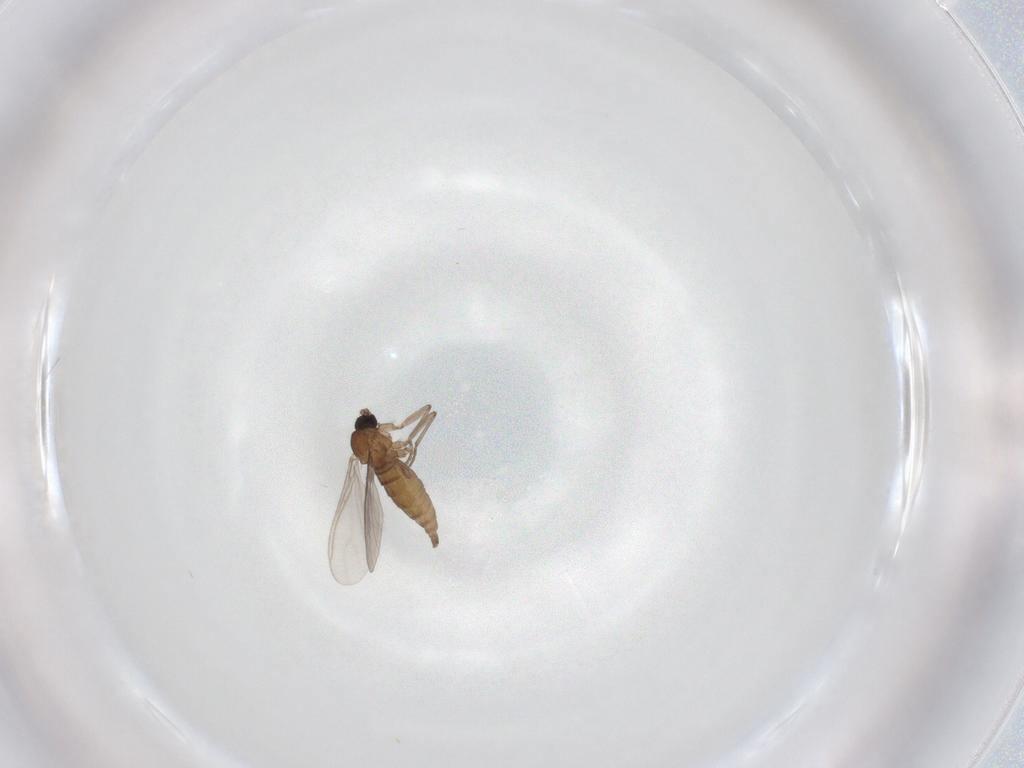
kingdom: Animalia
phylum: Arthropoda
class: Insecta
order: Diptera
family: Sciaridae
